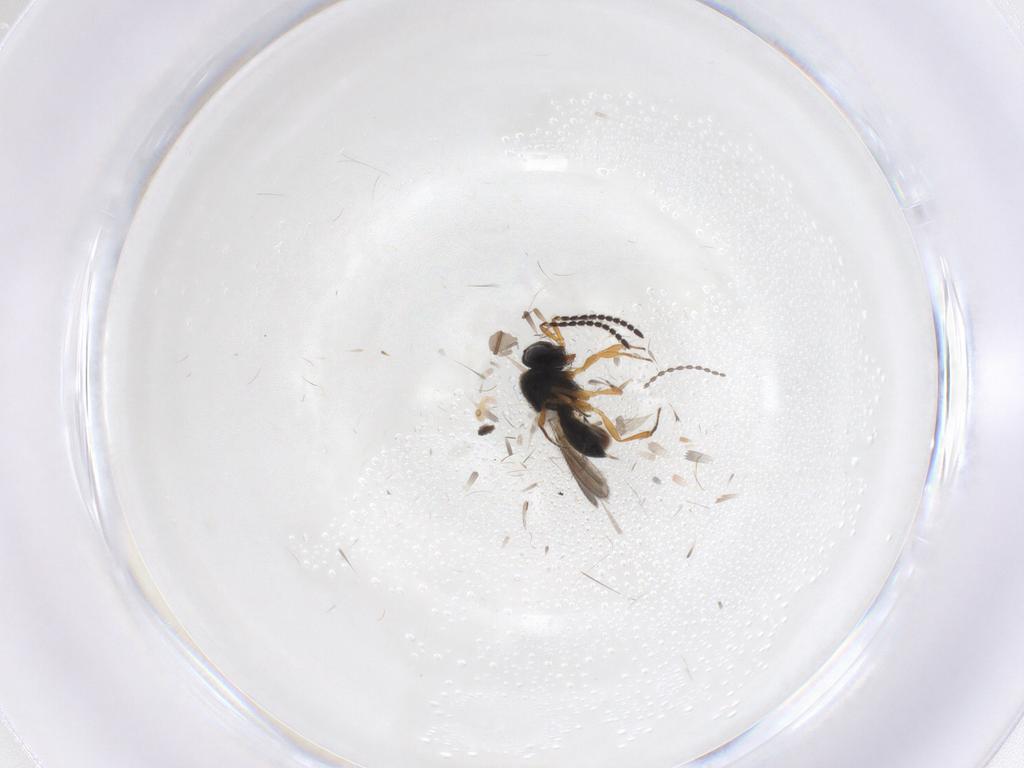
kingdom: Animalia
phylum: Arthropoda
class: Insecta
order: Hymenoptera
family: Scelionidae
